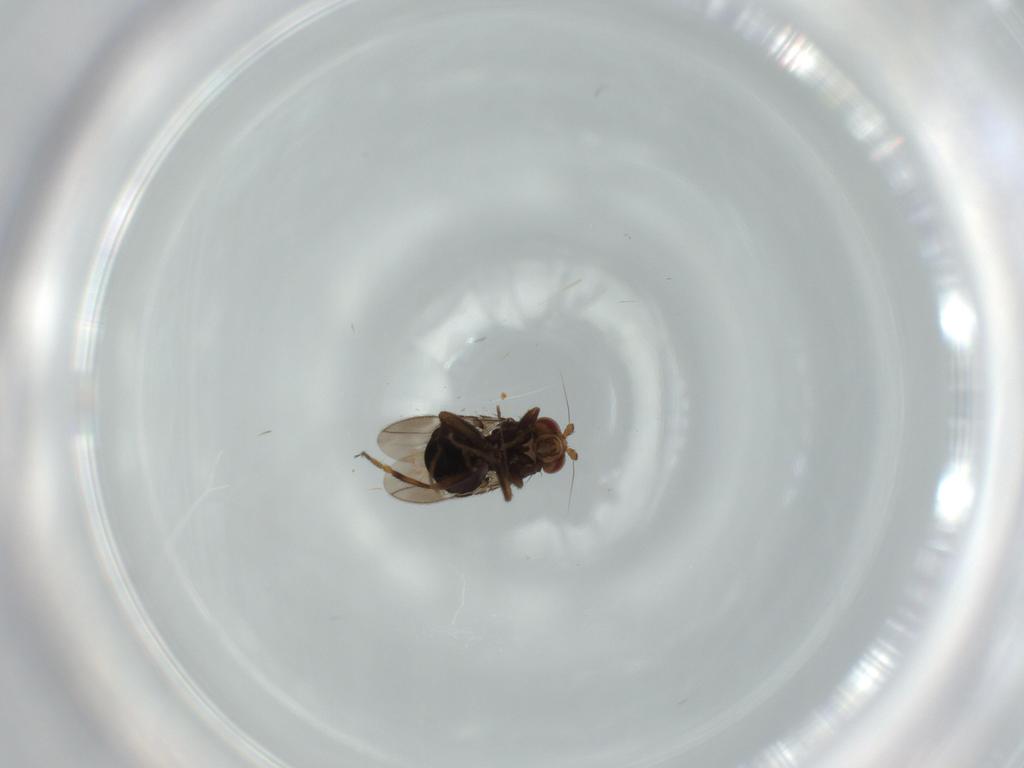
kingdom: Animalia
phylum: Arthropoda
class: Insecta
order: Diptera
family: Sphaeroceridae
